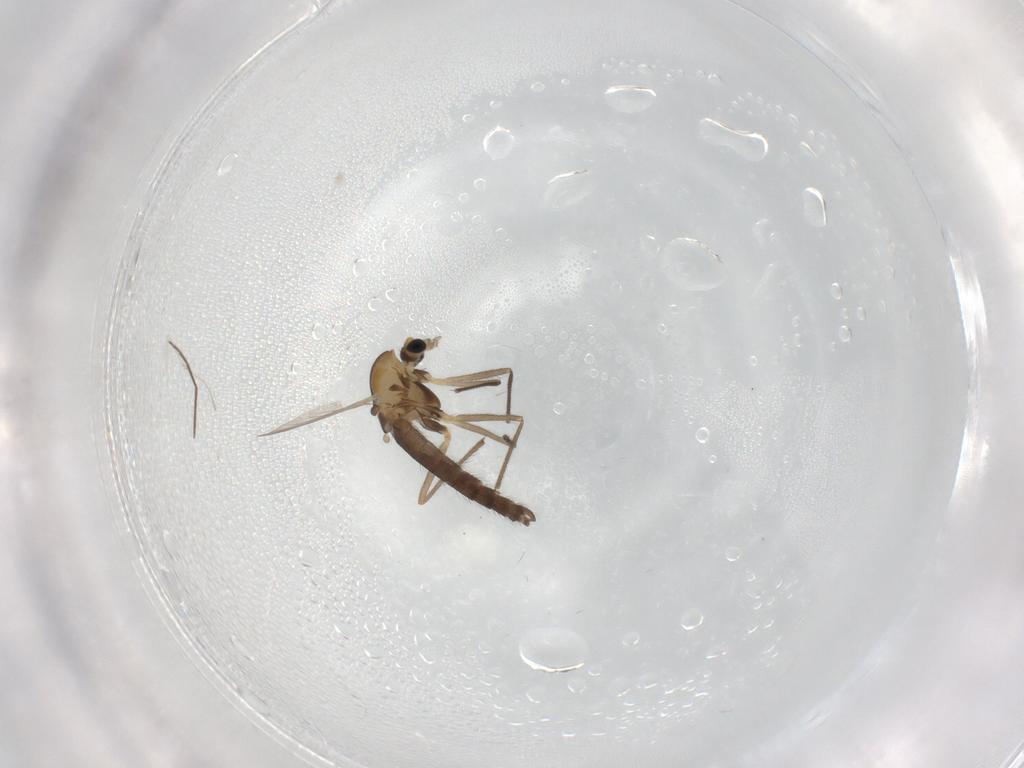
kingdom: Animalia
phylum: Arthropoda
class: Insecta
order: Diptera
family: Chironomidae
